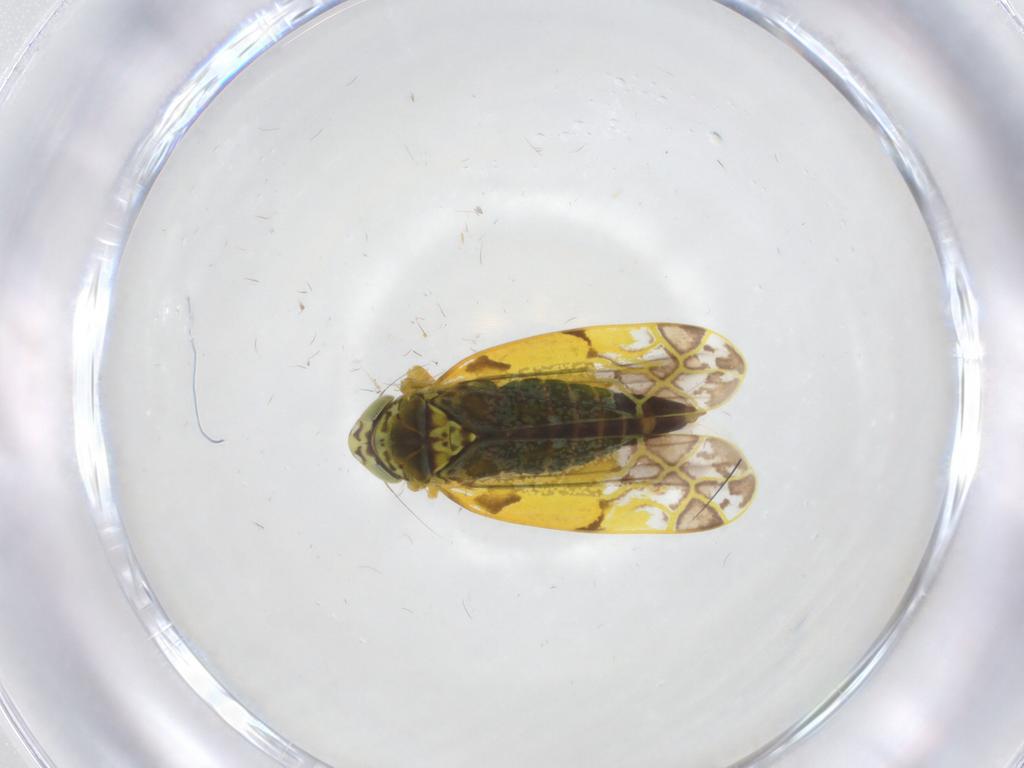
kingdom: Animalia
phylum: Arthropoda
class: Insecta
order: Hemiptera
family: Cicadellidae
